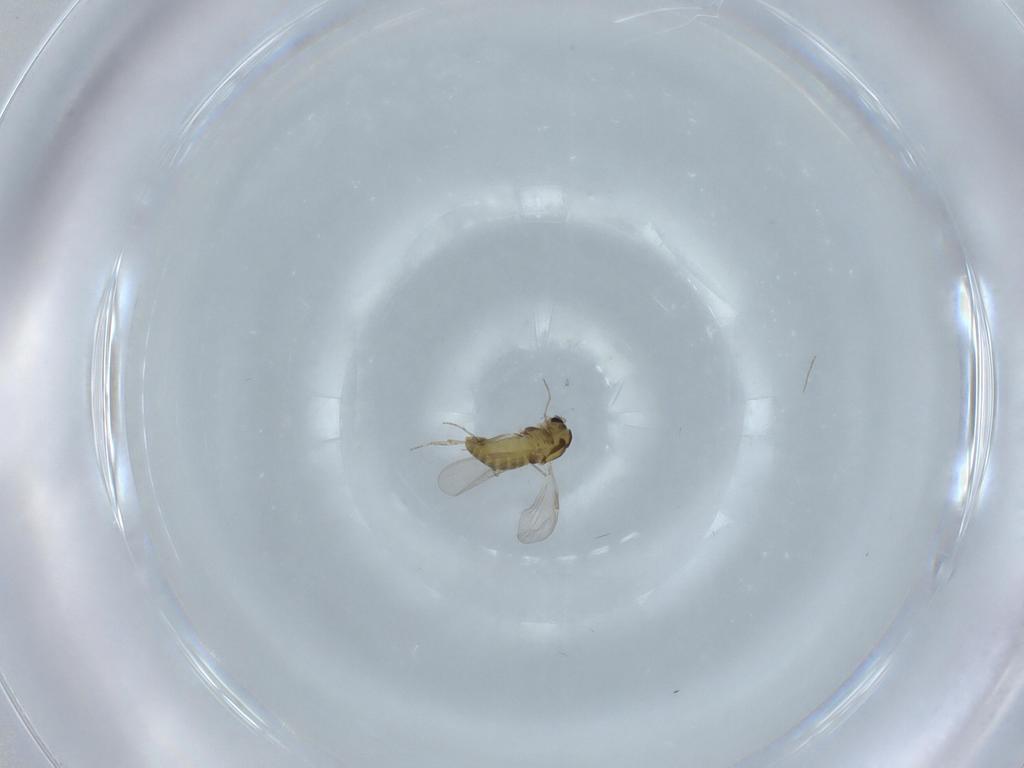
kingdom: Animalia
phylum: Arthropoda
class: Insecta
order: Diptera
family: Chironomidae
